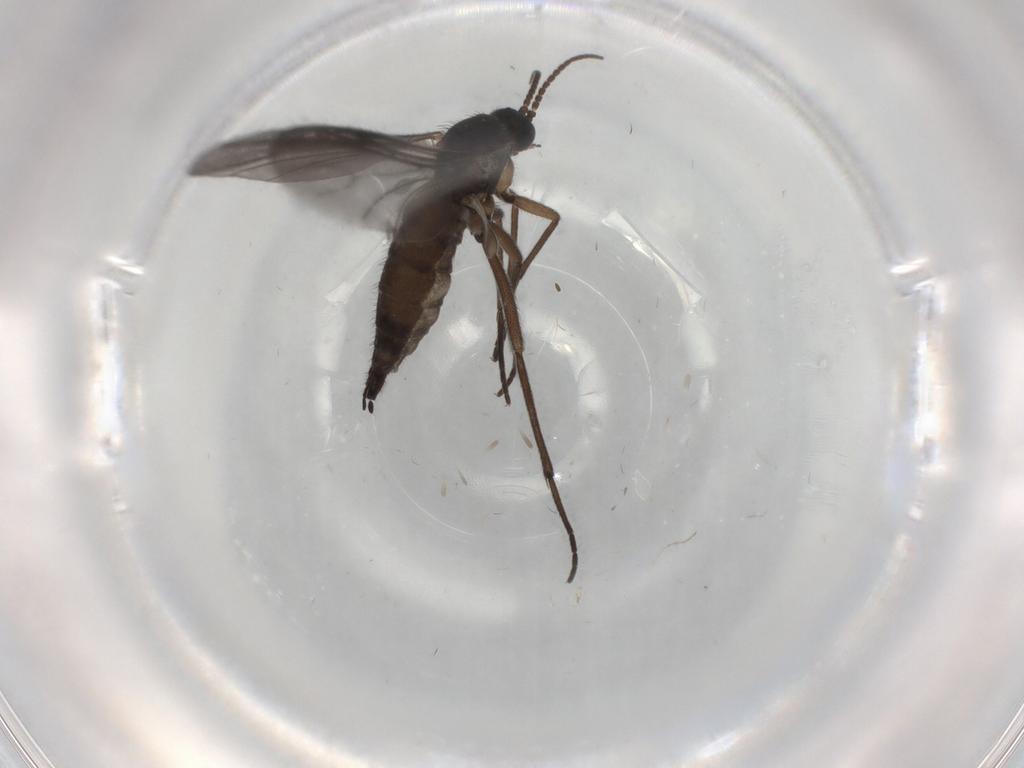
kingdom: Animalia
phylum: Arthropoda
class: Insecta
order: Diptera
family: Sciaridae
